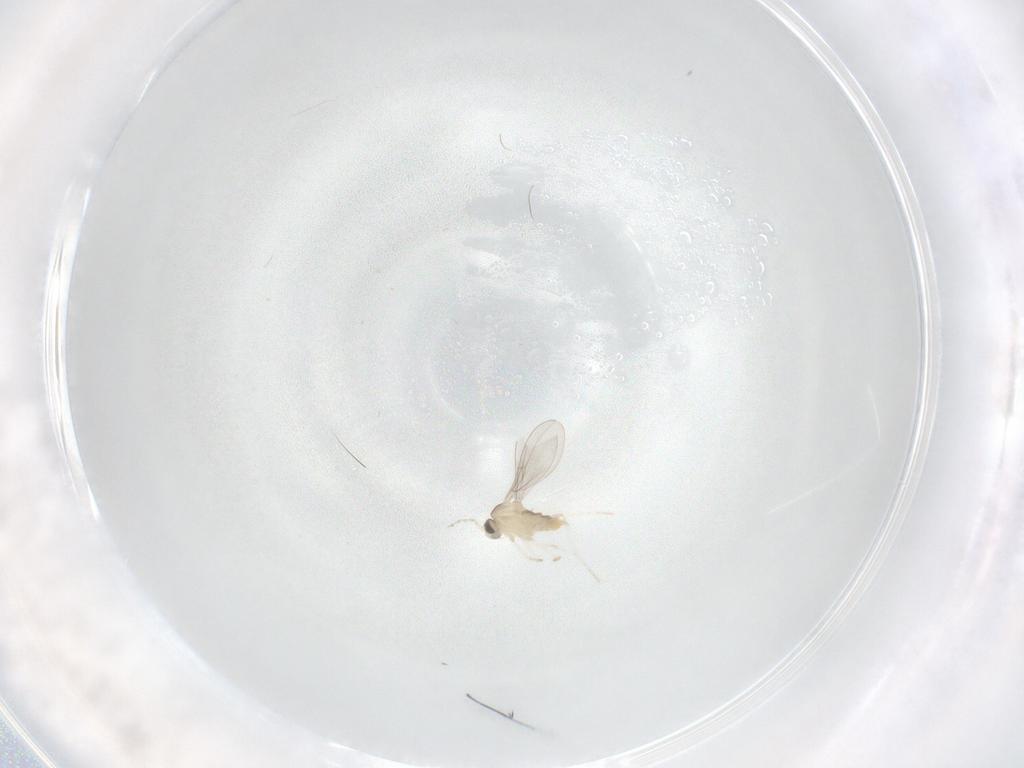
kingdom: Animalia
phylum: Arthropoda
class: Insecta
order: Diptera
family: Cecidomyiidae
